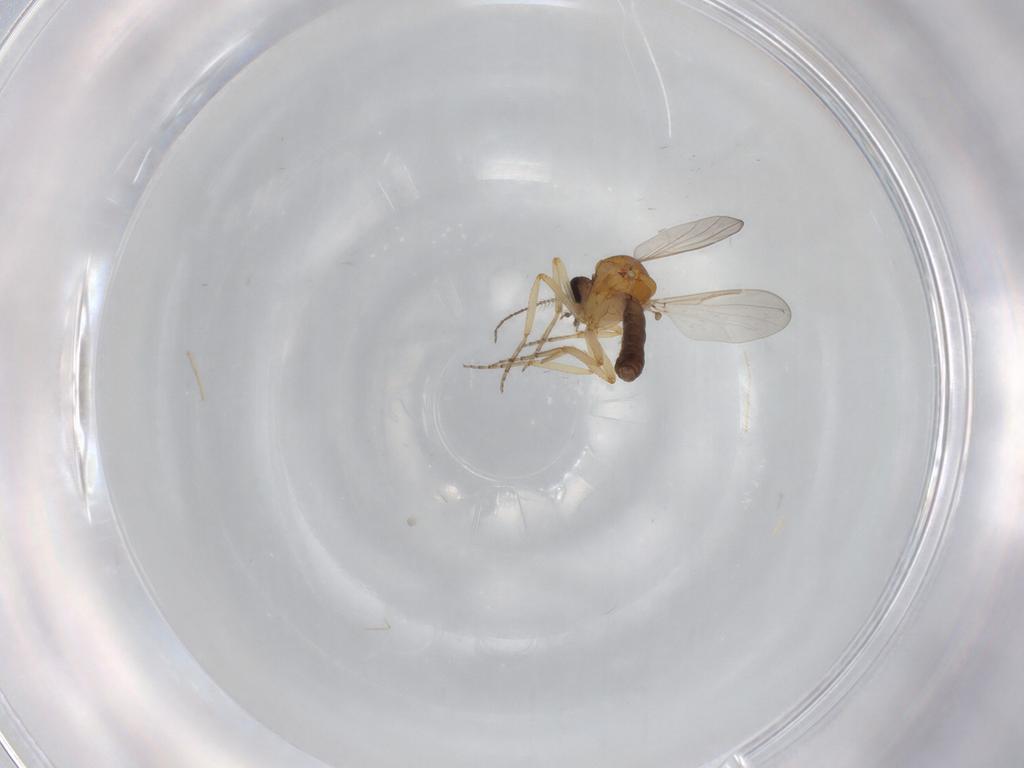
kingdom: Animalia
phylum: Arthropoda
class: Insecta
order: Diptera
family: Ceratopogonidae
